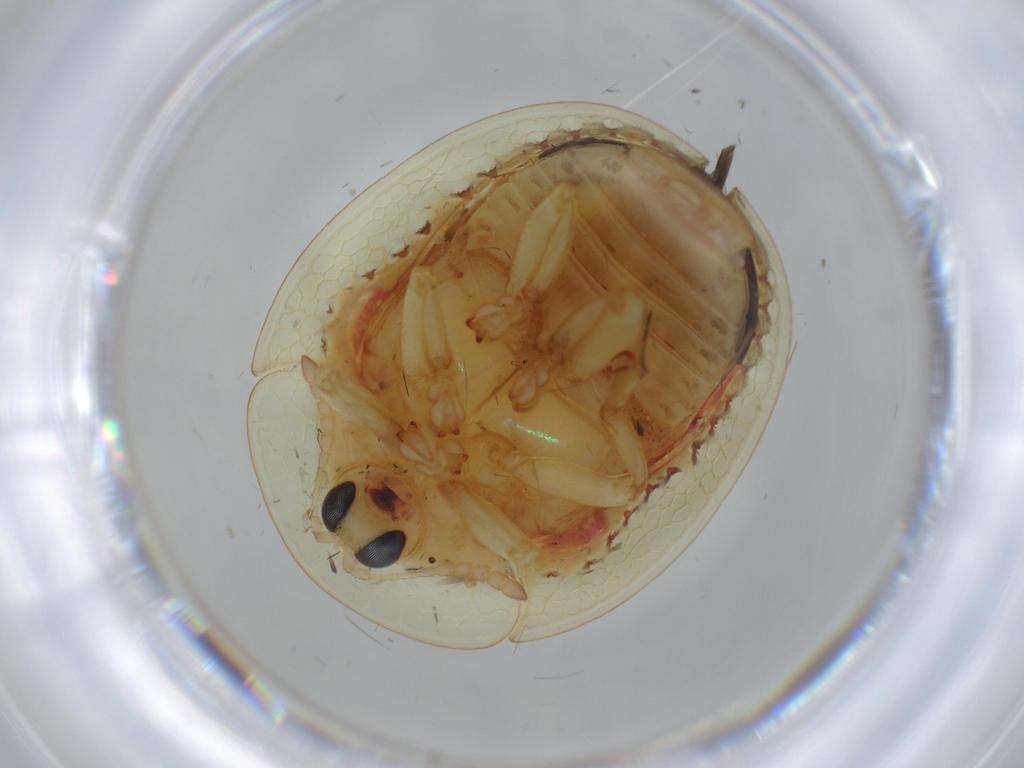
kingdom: Animalia
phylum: Arthropoda
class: Insecta
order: Coleoptera
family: Chrysomelidae
